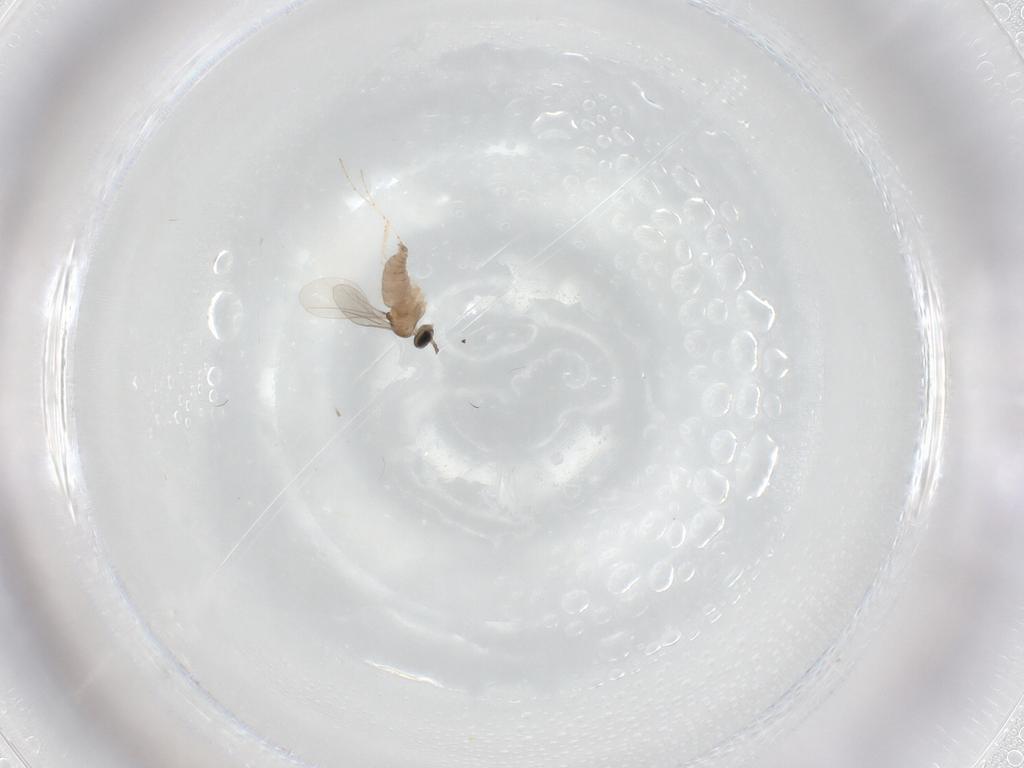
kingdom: Animalia
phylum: Arthropoda
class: Insecta
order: Diptera
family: Cecidomyiidae
